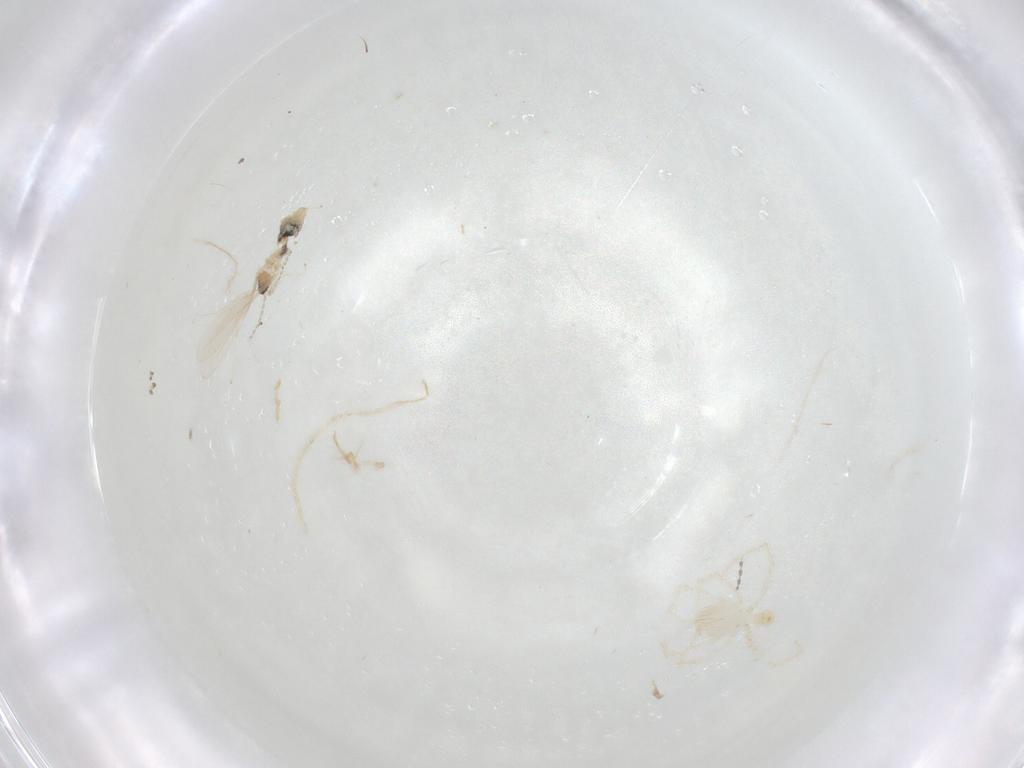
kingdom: Animalia
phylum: Arthropoda
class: Insecta
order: Diptera
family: Cecidomyiidae
